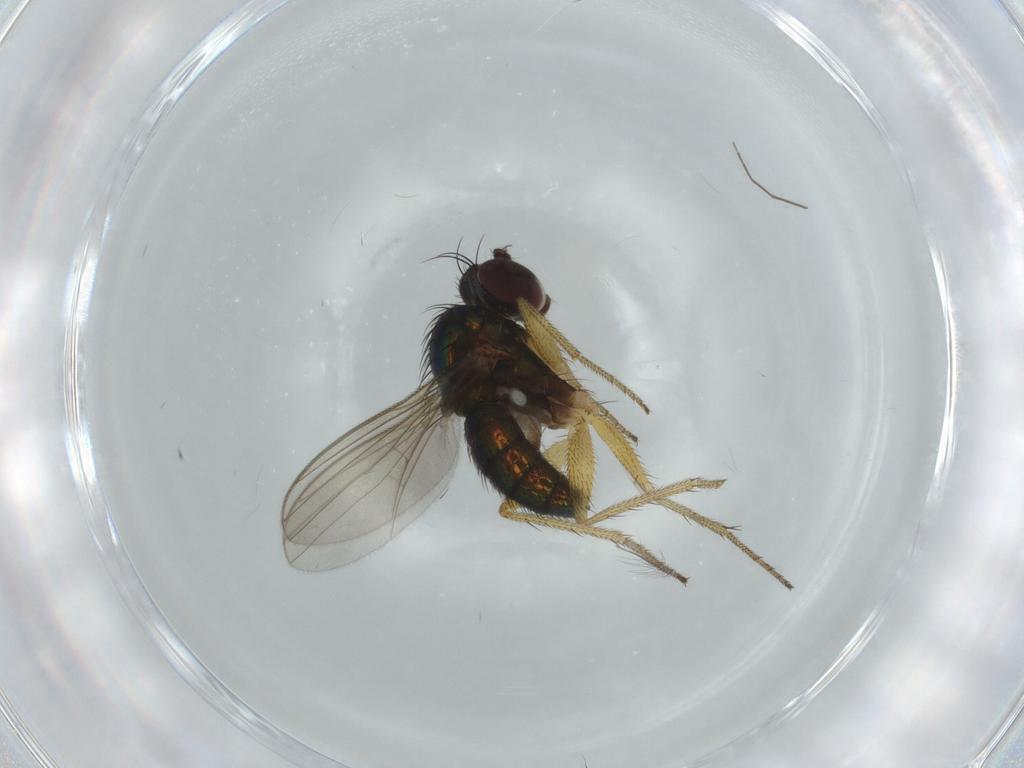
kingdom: Animalia
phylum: Arthropoda
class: Insecta
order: Diptera
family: Dolichopodidae
